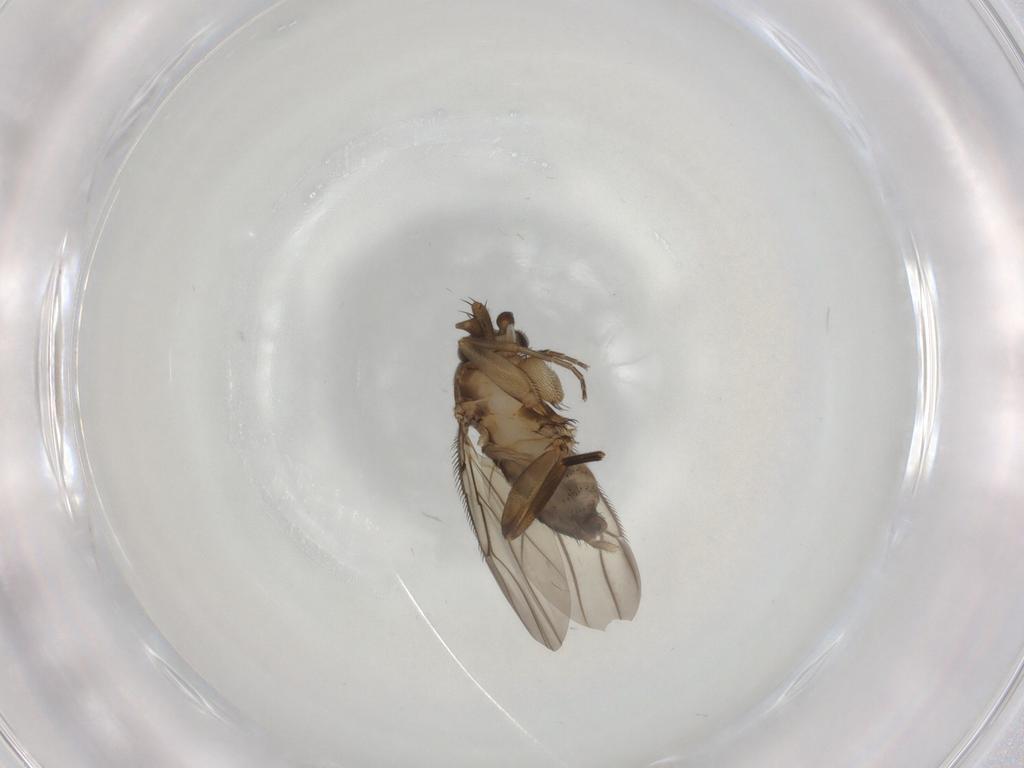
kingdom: Animalia
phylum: Arthropoda
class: Insecta
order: Diptera
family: Phoridae
